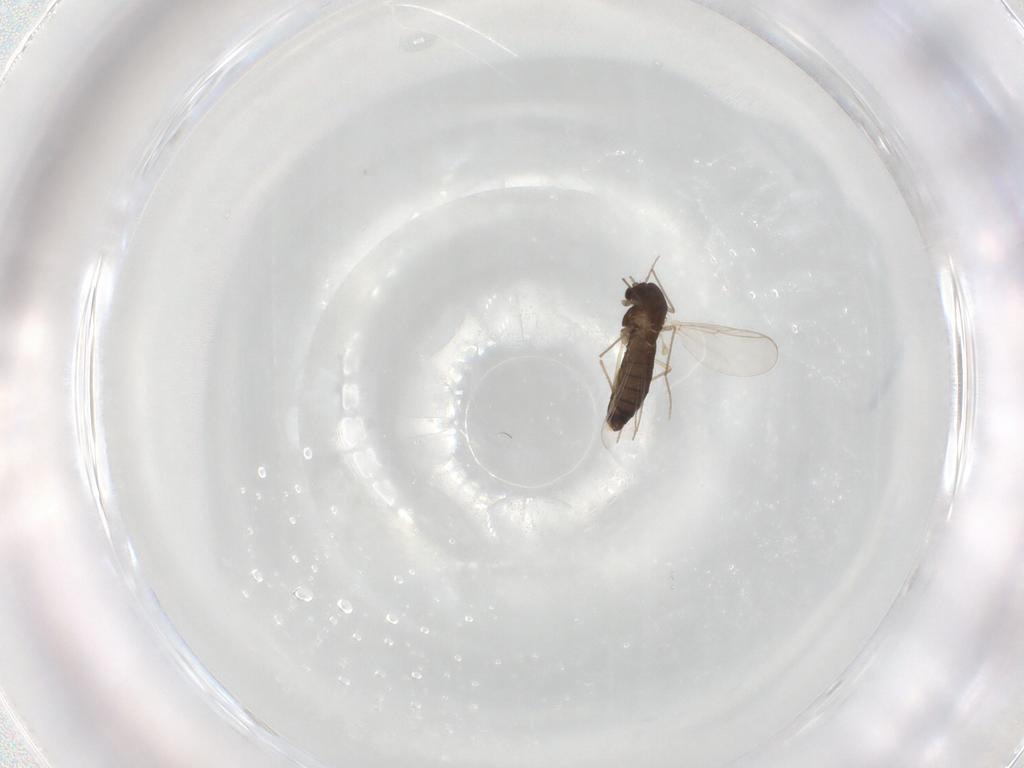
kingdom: Animalia
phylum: Arthropoda
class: Insecta
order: Diptera
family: Chironomidae
